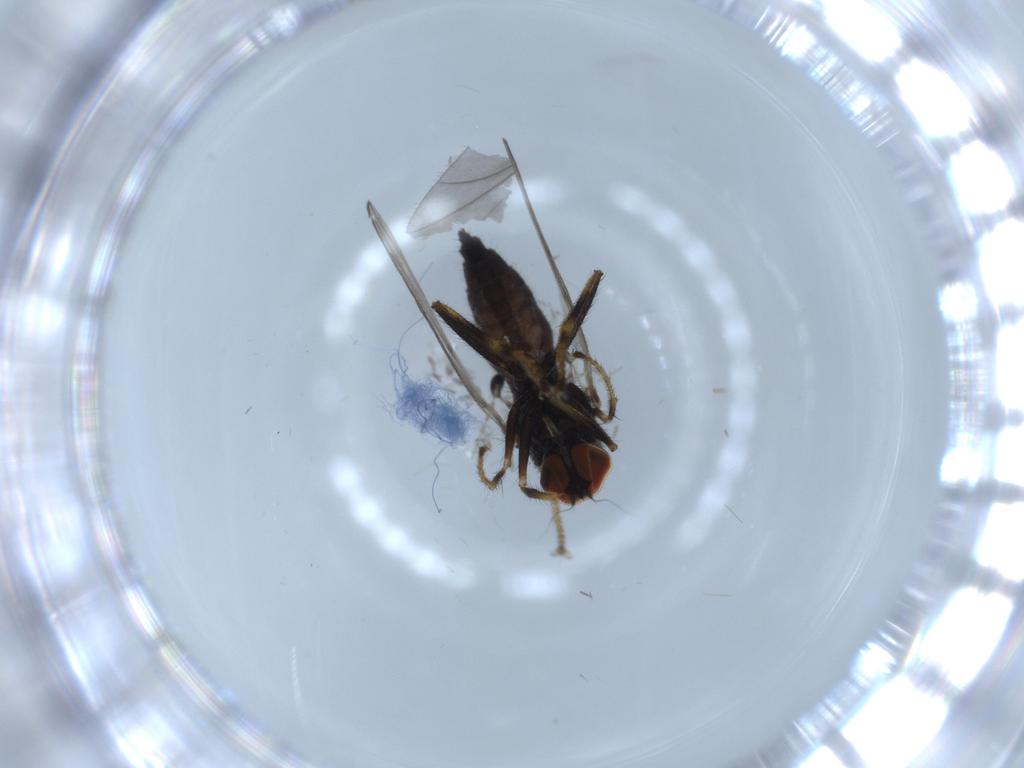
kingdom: Animalia
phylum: Arthropoda
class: Insecta
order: Diptera
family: Hybotidae
